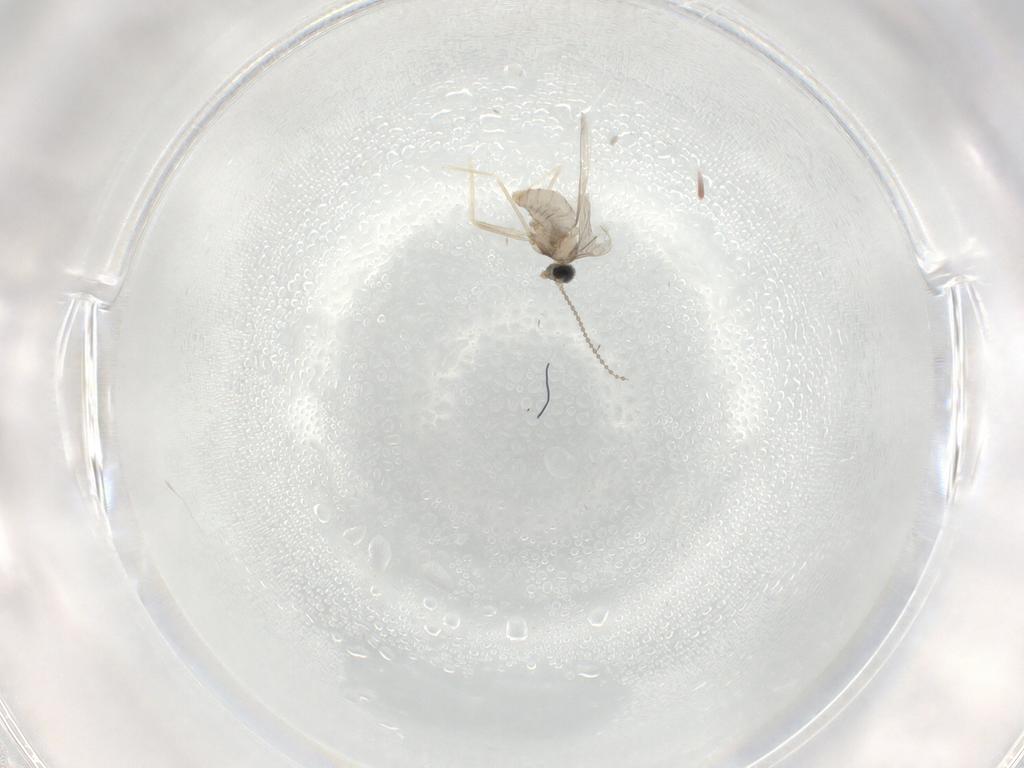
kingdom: Animalia
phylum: Arthropoda
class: Insecta
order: Diptera
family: Cecidomyiidae
